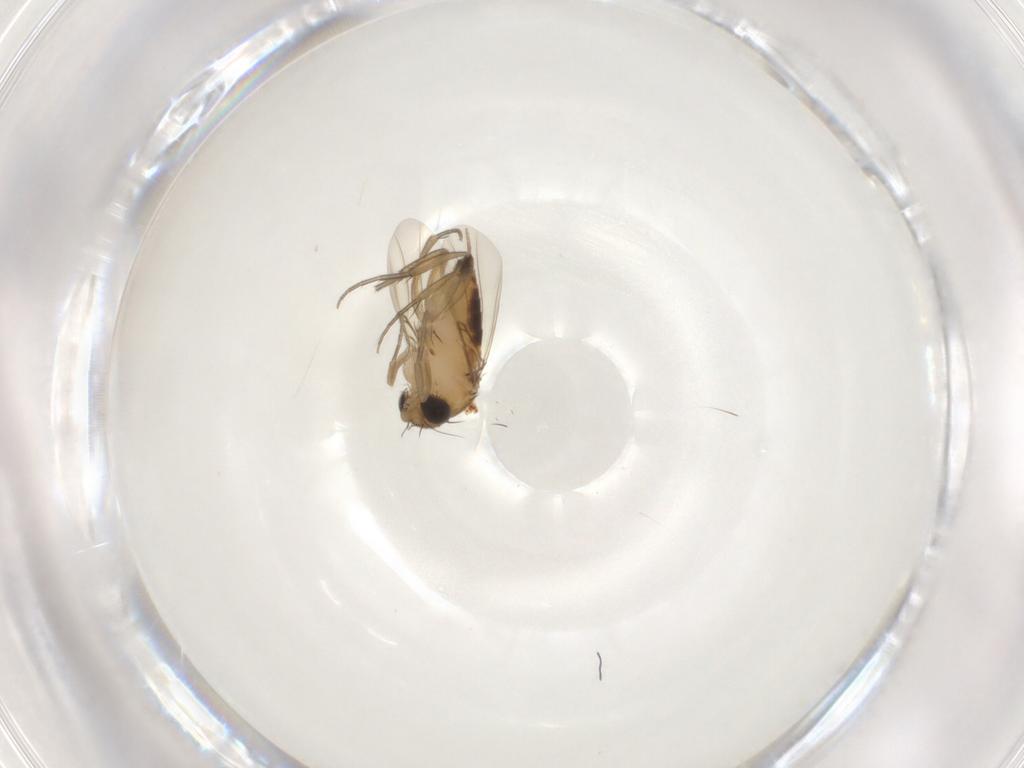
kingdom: Animalia
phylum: Arthropoda
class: Insecta
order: Diptera
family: Phoridae
